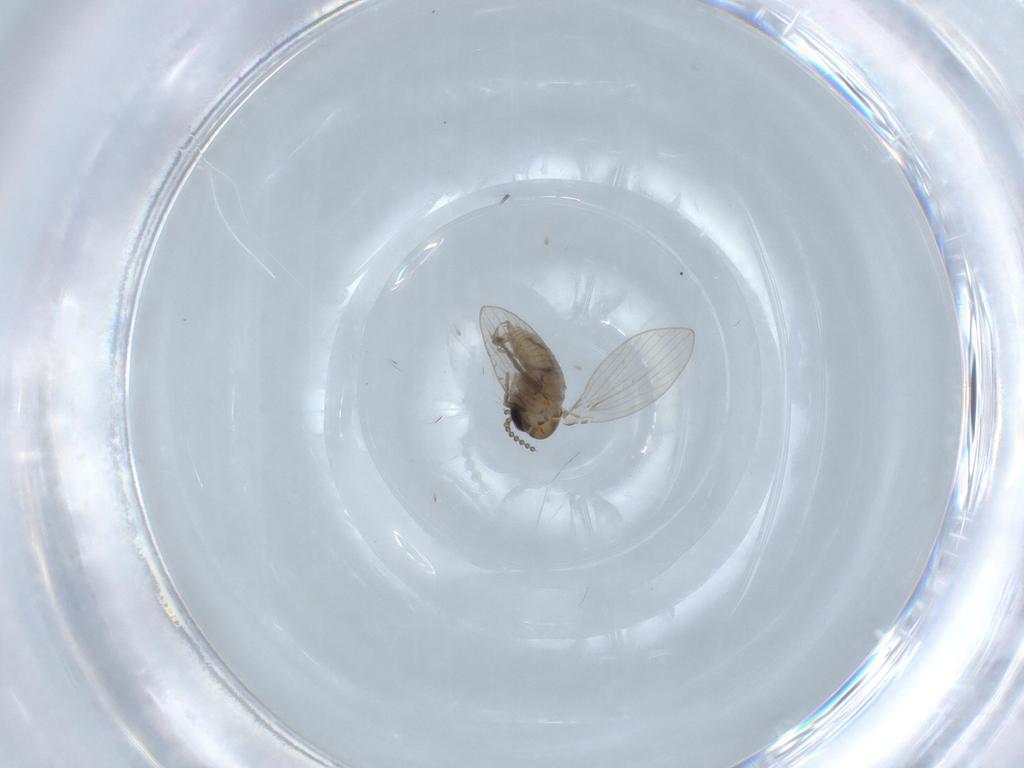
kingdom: Animalia
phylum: Arthropoda
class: Insecta
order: Diptera
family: Psychodidae
